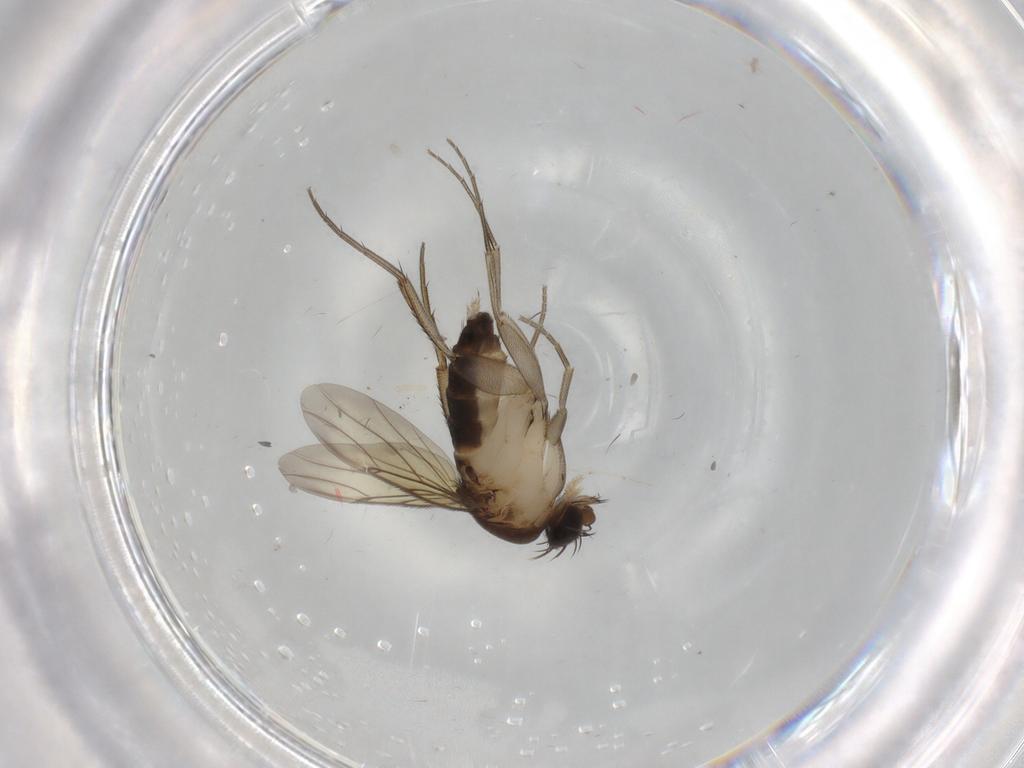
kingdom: Animalia
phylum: Arthropoda
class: Insecta
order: Diptera
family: Phoridae
